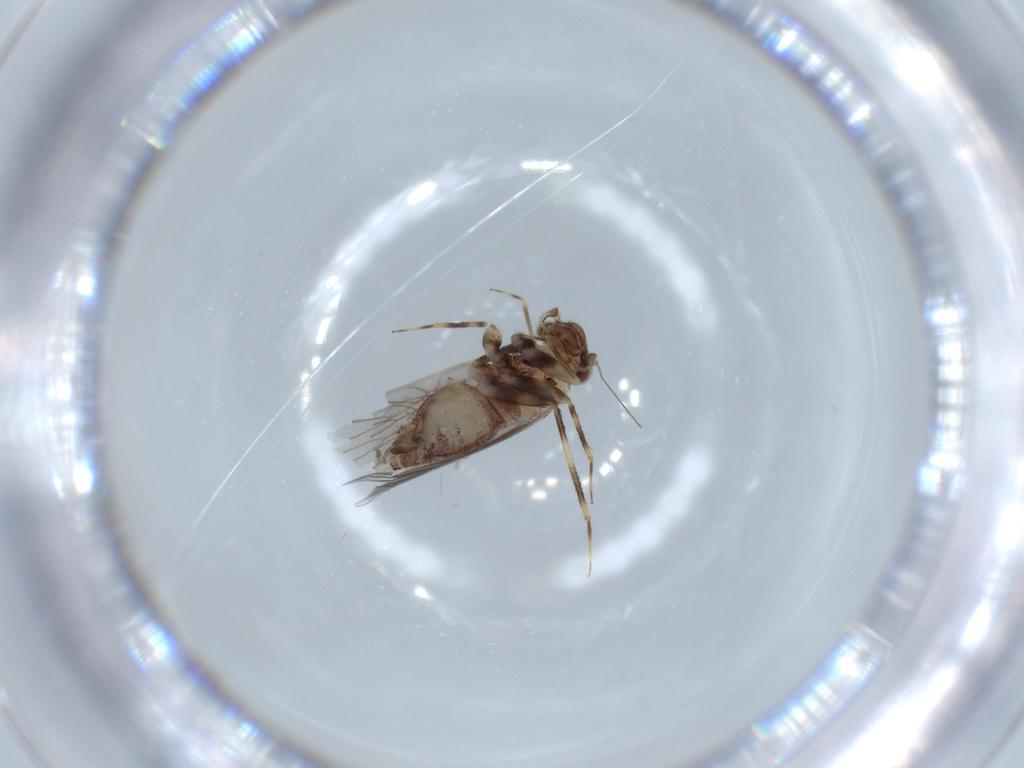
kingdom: Animalia
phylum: Arthropoda
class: Insecta
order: Psocodea
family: Lepidopsocidae
